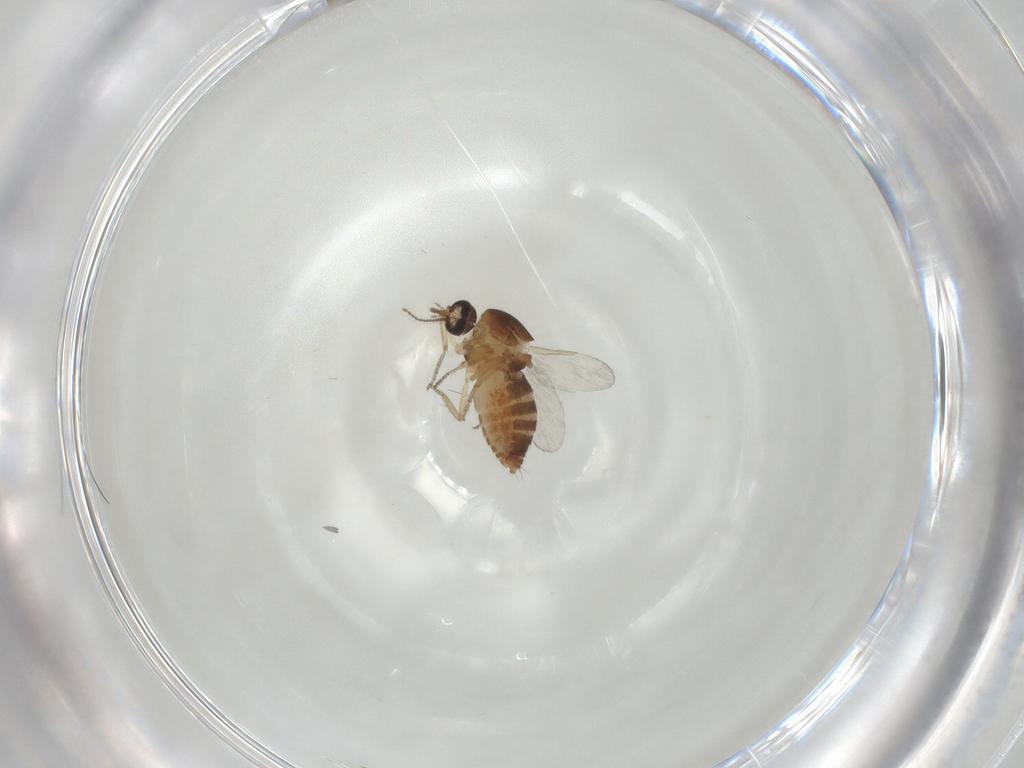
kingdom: Animalia
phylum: Arthropoda
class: Insecta
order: Diptera
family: Ceratopogonidae
